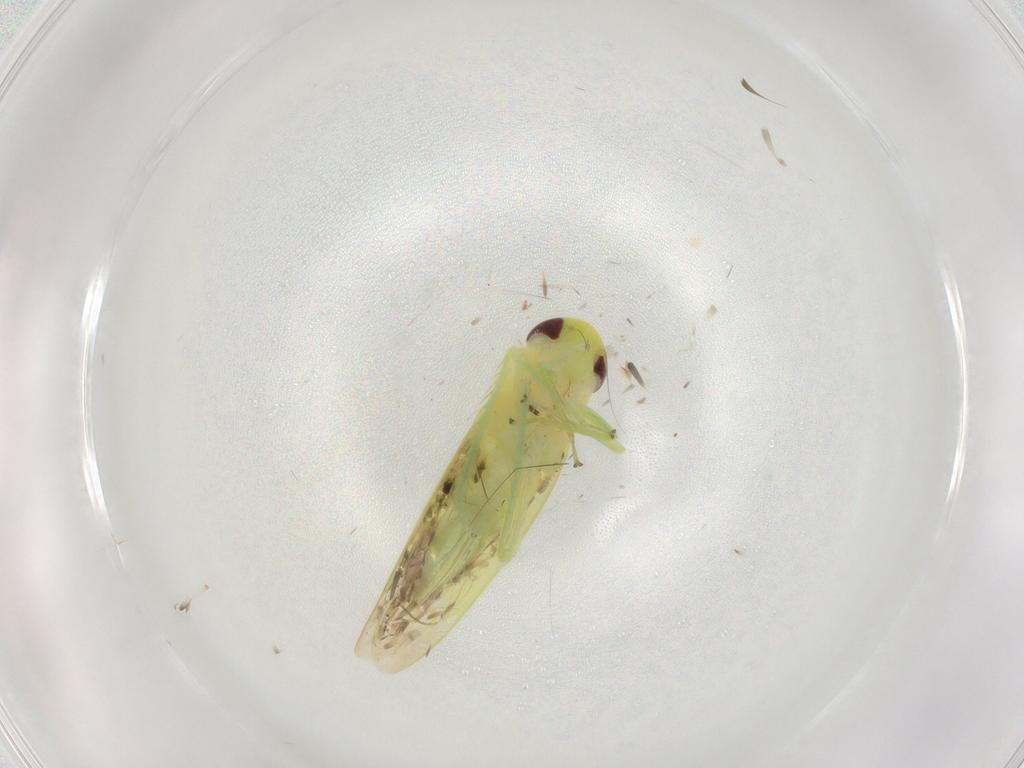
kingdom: Animalia
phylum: Arthropoda
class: Insecta
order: Hemiptera
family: Cicadellidae
